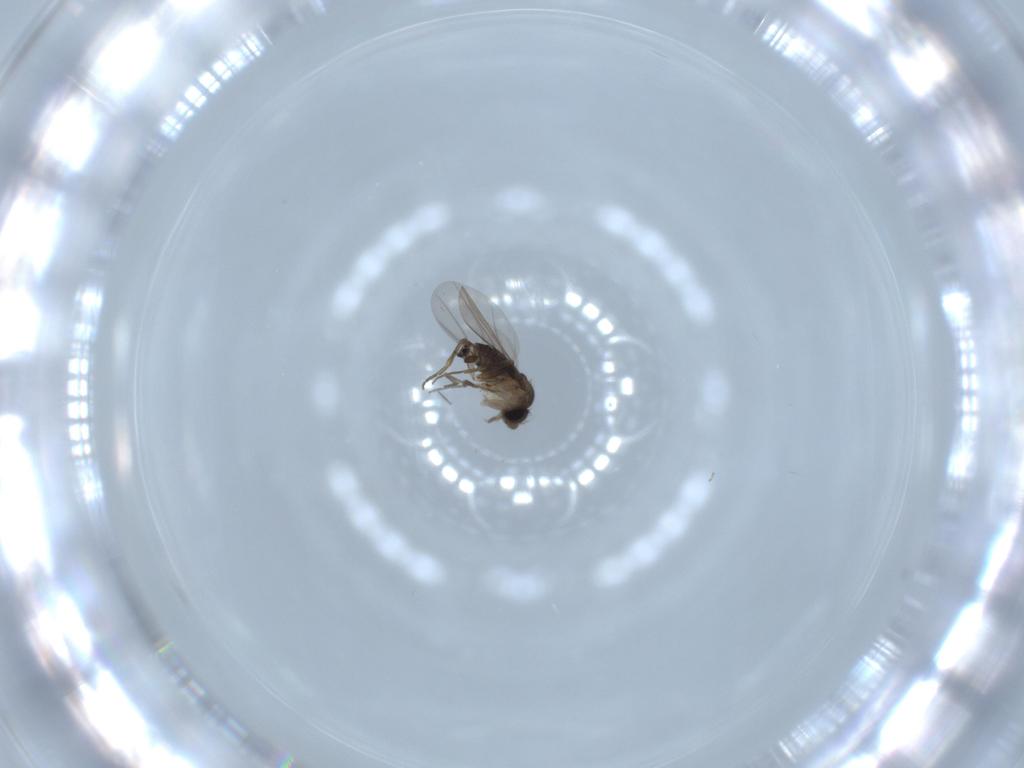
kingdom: Animalia
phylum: Arthropoda
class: Insecta
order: Diptera
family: Phoridae
